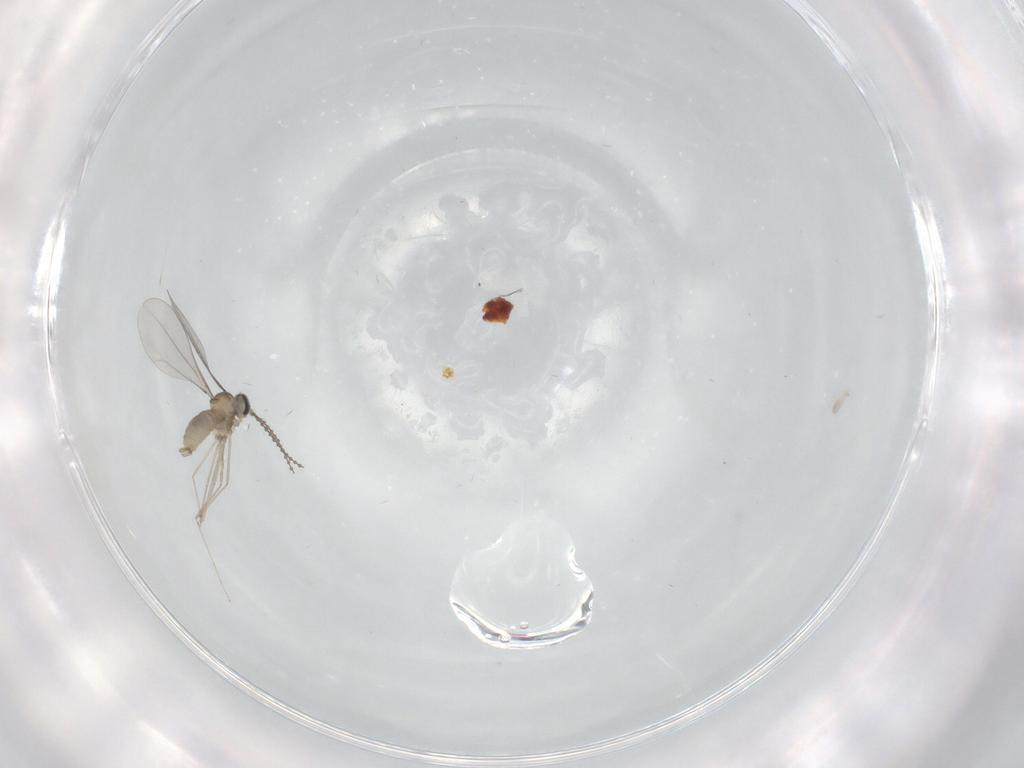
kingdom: Animalia
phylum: Arthropoda
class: Insecta
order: Diptera
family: Cecidomyiidae
